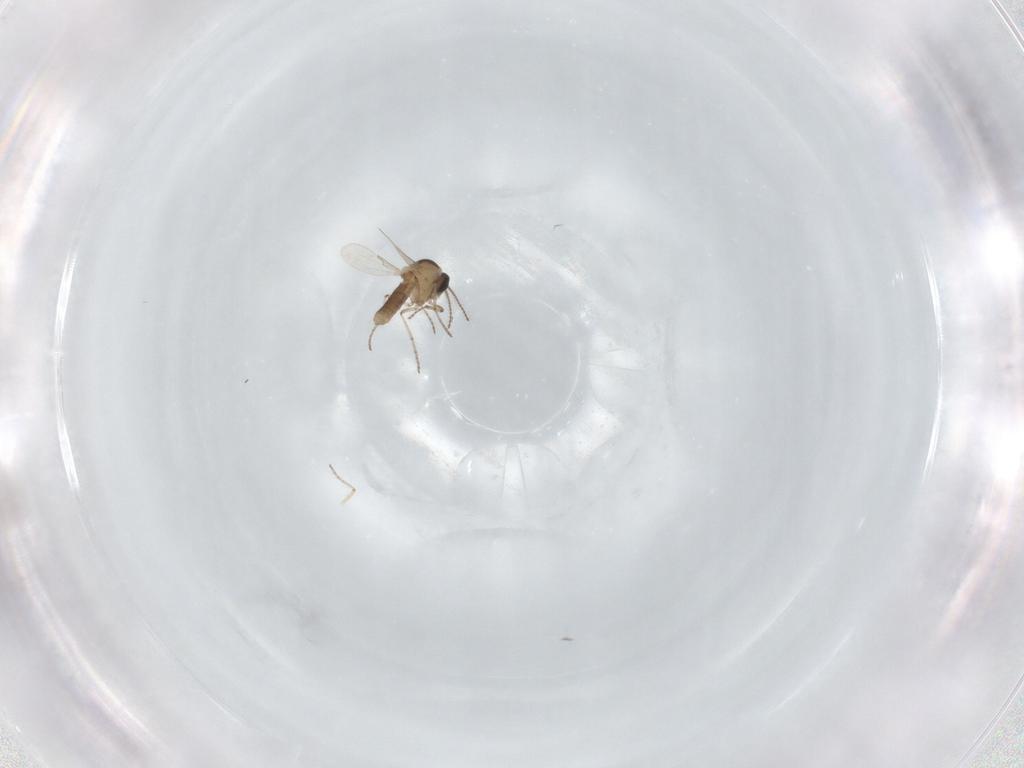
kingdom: Animalia
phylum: Arthropoda
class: Insecta
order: Diptera
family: Ceratopogonidae
